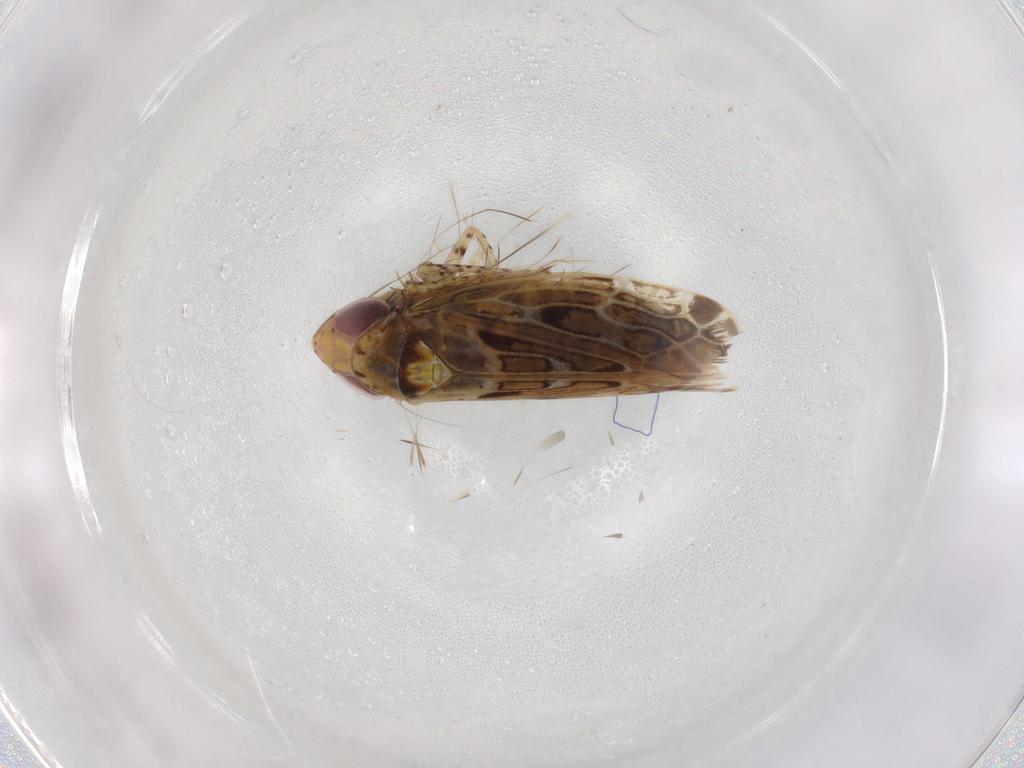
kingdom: Animalia
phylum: Arthropoda
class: Insecta
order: Hemiptera
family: Cicadellidae
